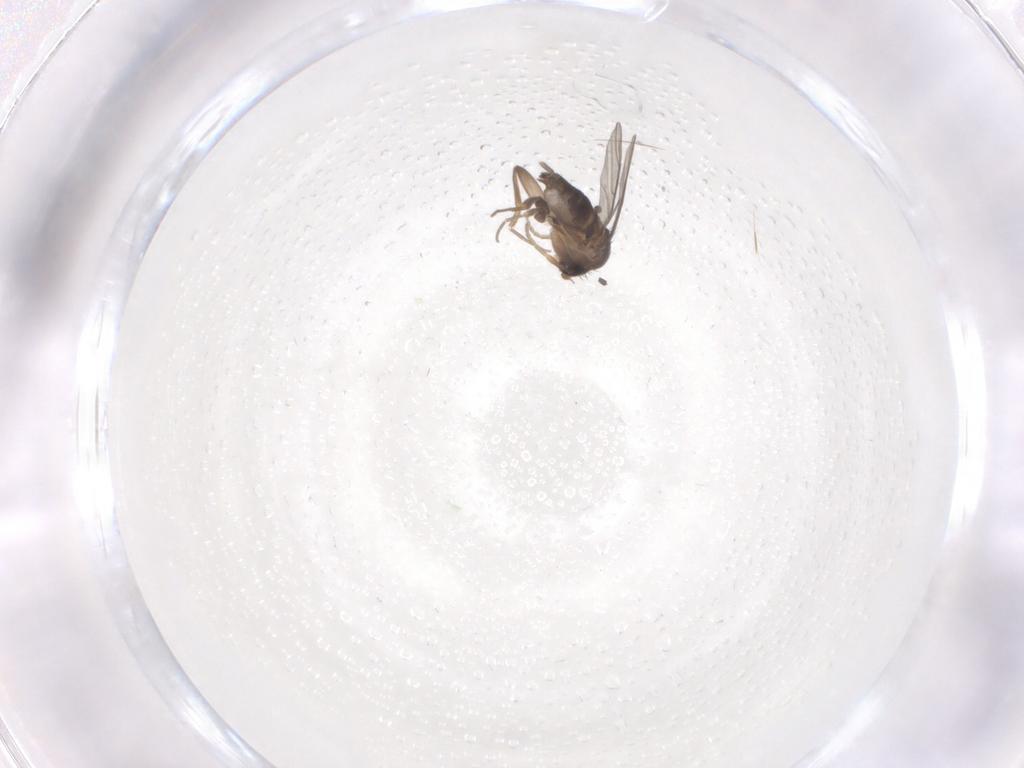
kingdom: Animalia
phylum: Arthropoda
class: Insecta
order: Diptera
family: Phoridae
